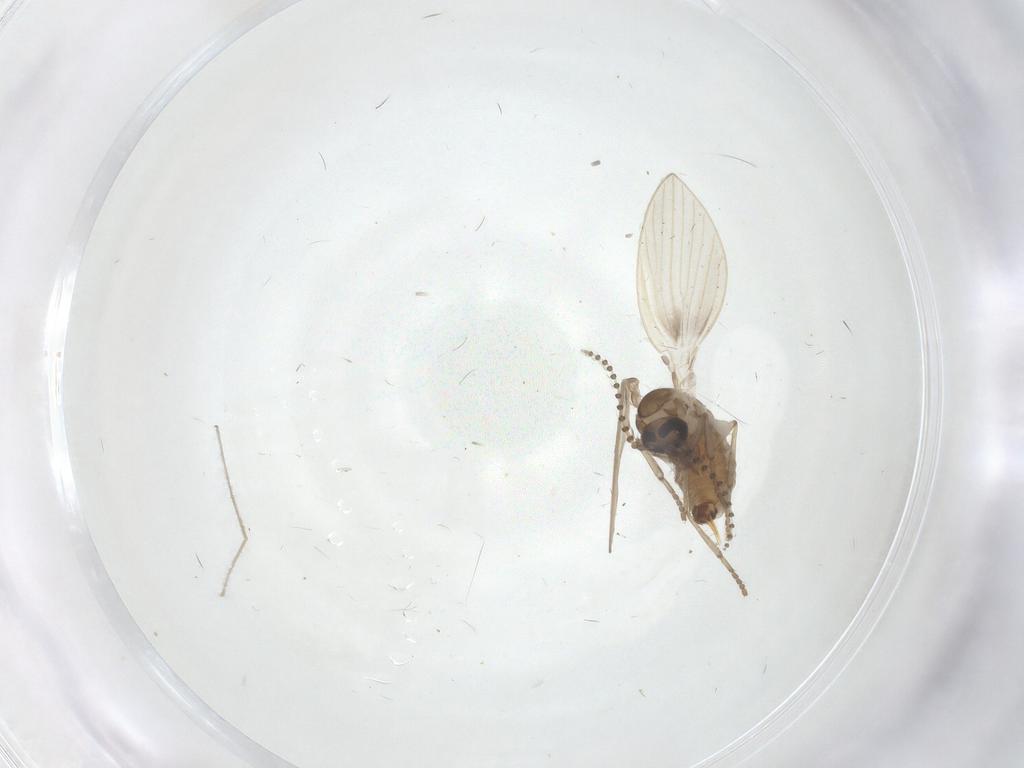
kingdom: Animalia
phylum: Arthropoda
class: Insecta
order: Diptera
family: Psychodidae
